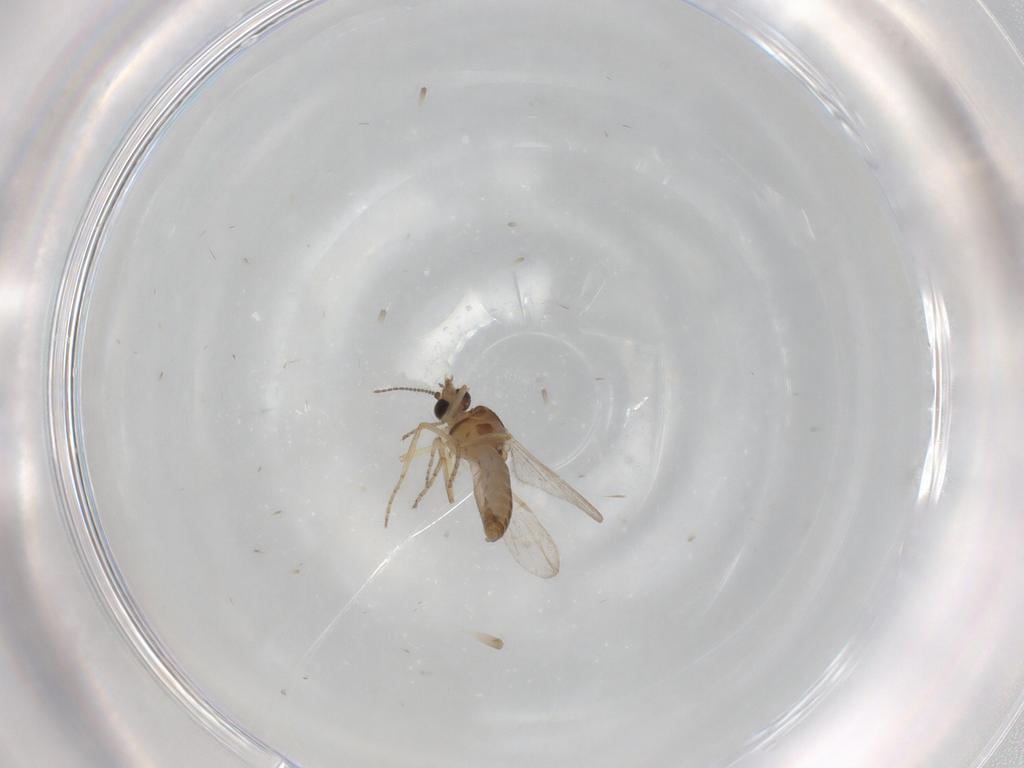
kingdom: Animalia
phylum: Arthropoda
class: Insecta
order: Diptera
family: Ceratopogonidae
